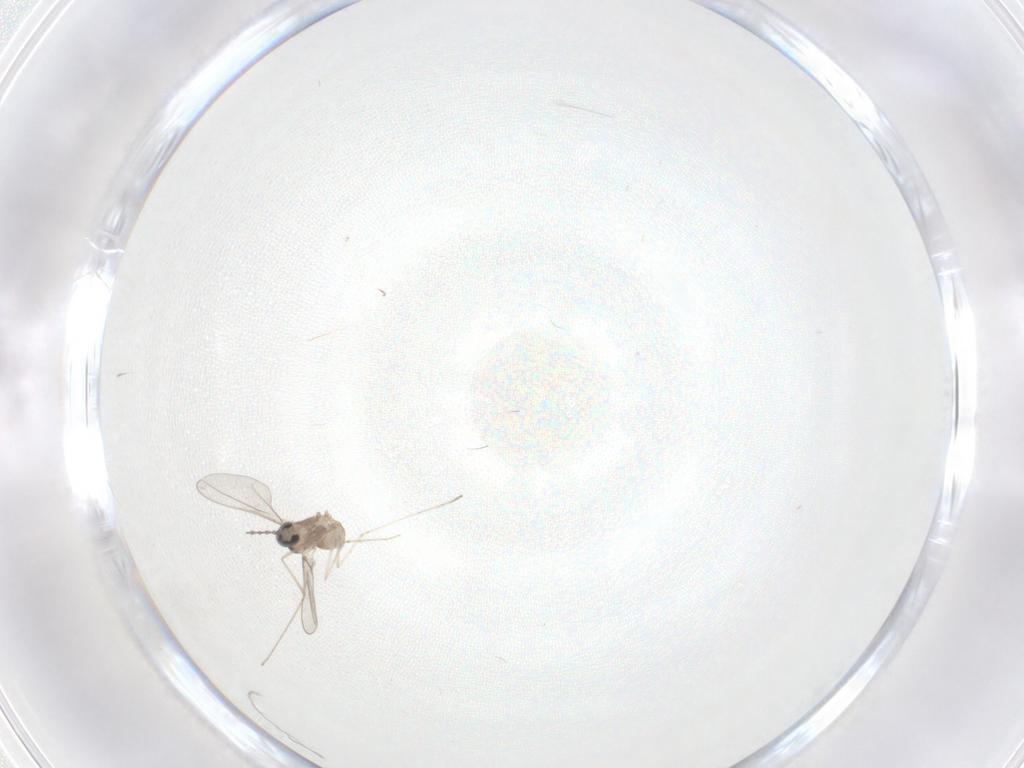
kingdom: Animalia
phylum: Arthropoda
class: Insecta
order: Diptera
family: Cecidomyiidae
